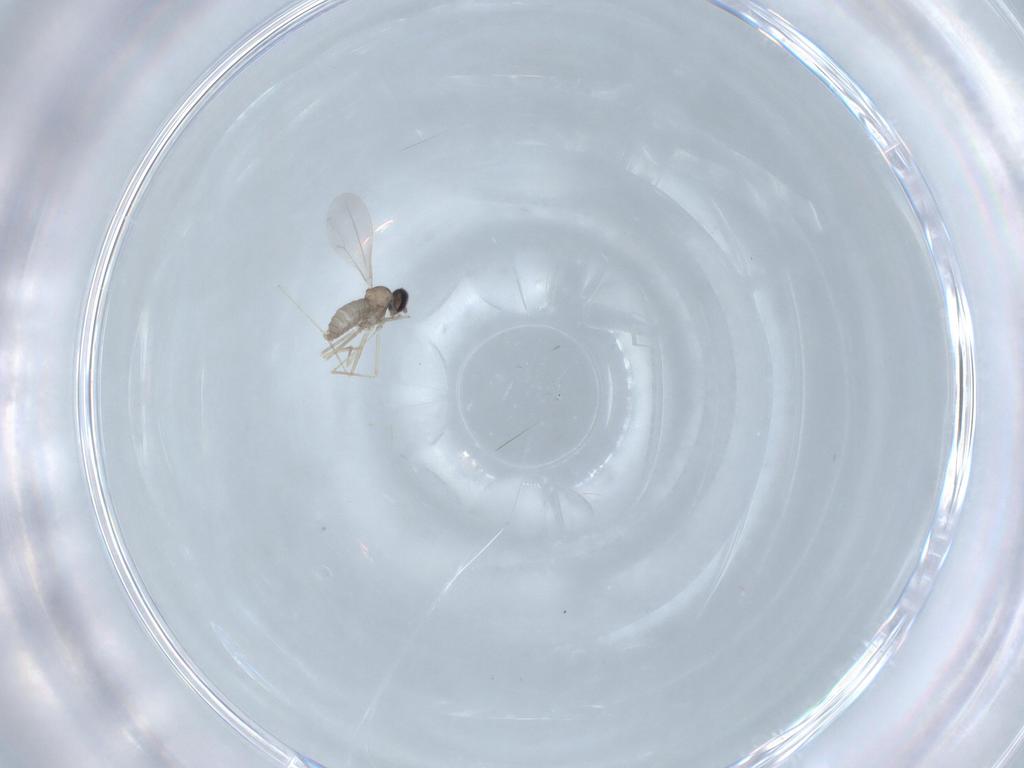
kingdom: Animalia
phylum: Arthropoda
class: Insecta
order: Diptera
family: Cecidomyiidae
